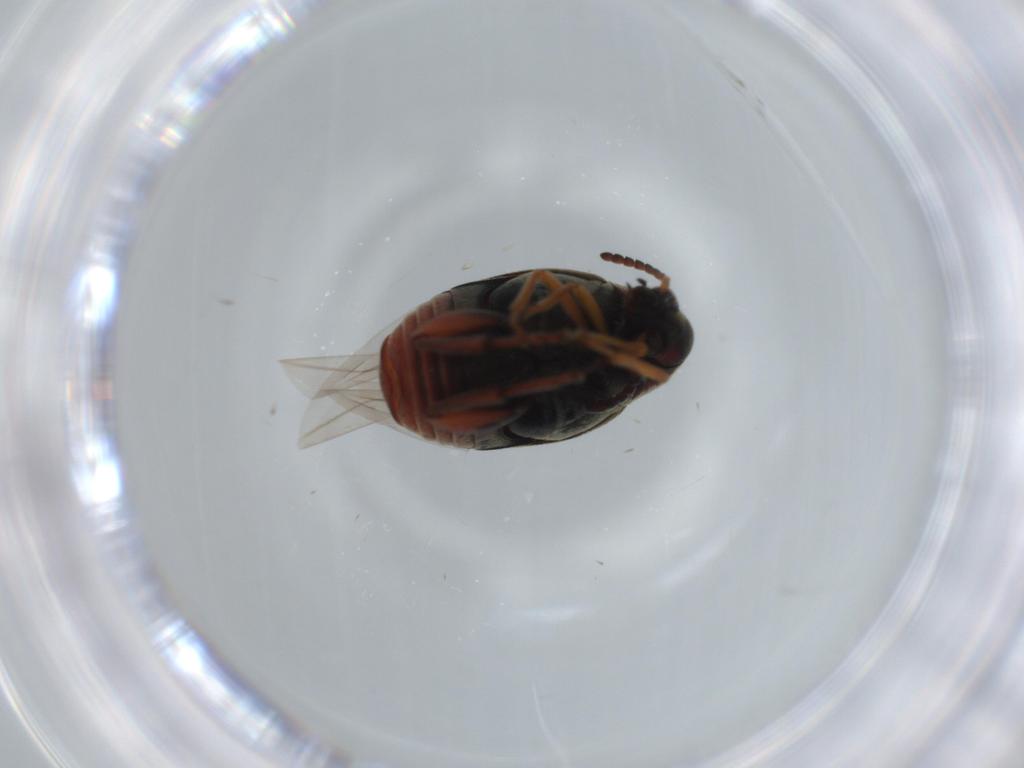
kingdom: Animalia
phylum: Arthropoda
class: Insecta
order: Coleoptera
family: Chrysomelidae
